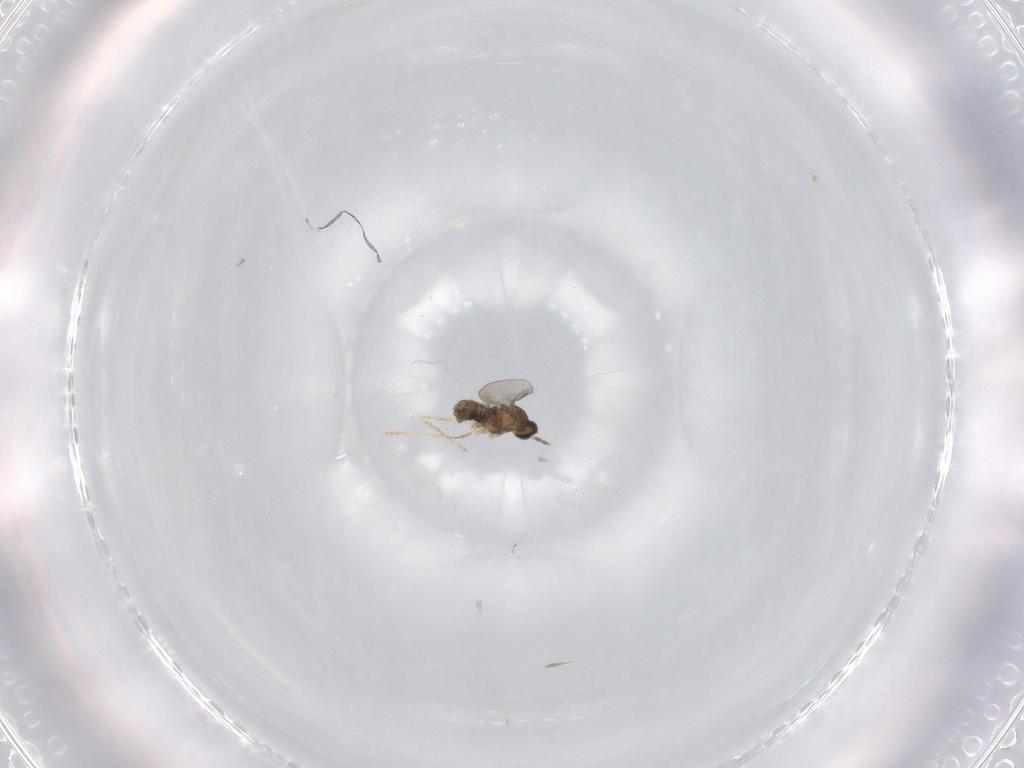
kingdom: Animalia
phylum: Arthropoda
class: Insecta
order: Diptera
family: Ceratopogonidae
